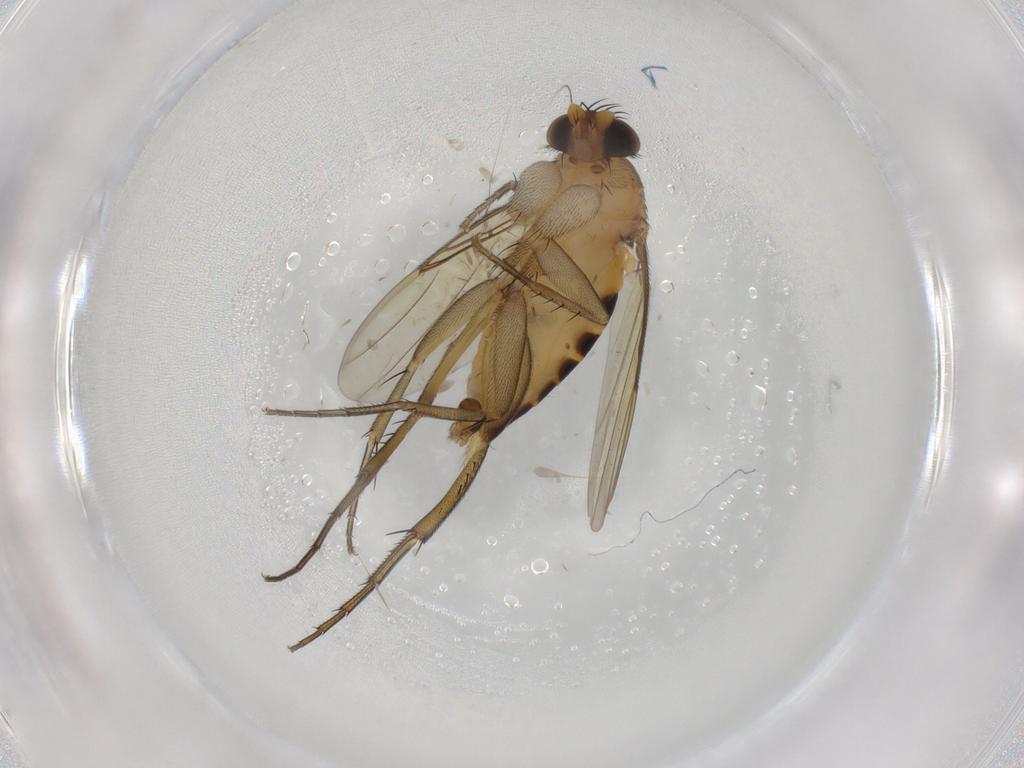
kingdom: Animalia
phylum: Arthropoda
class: Insecta
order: Diptera
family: Phoridae
